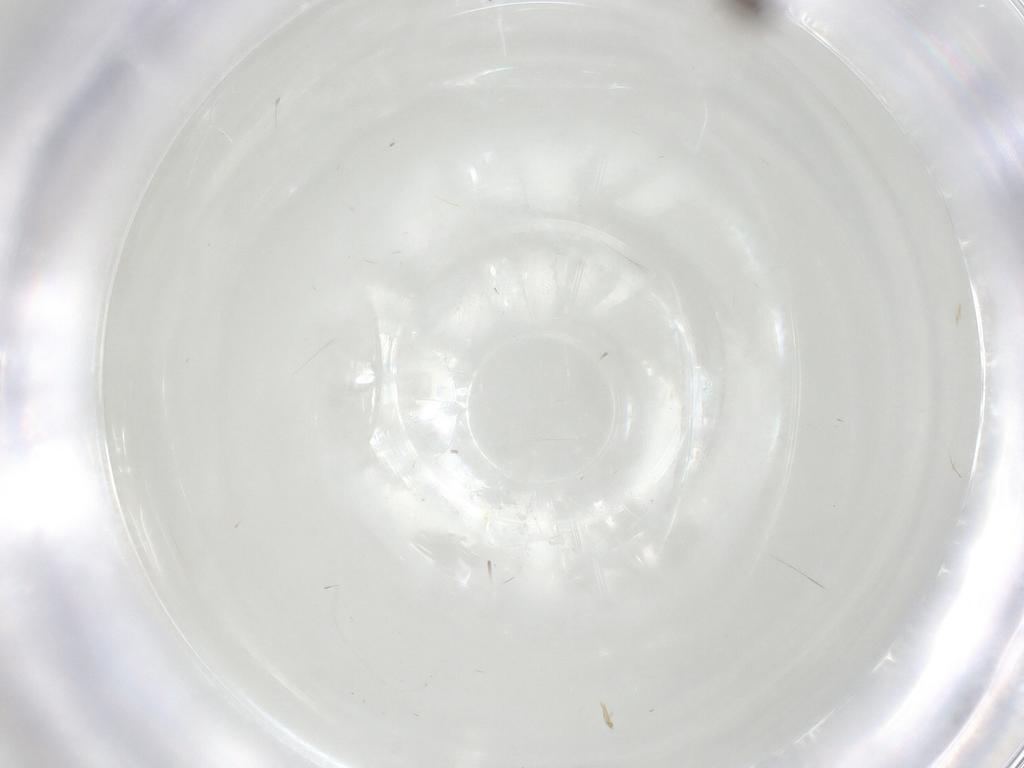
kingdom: Animalia
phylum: Arthropoda
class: Insecta
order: Diptera
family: Cecidomyiidae
